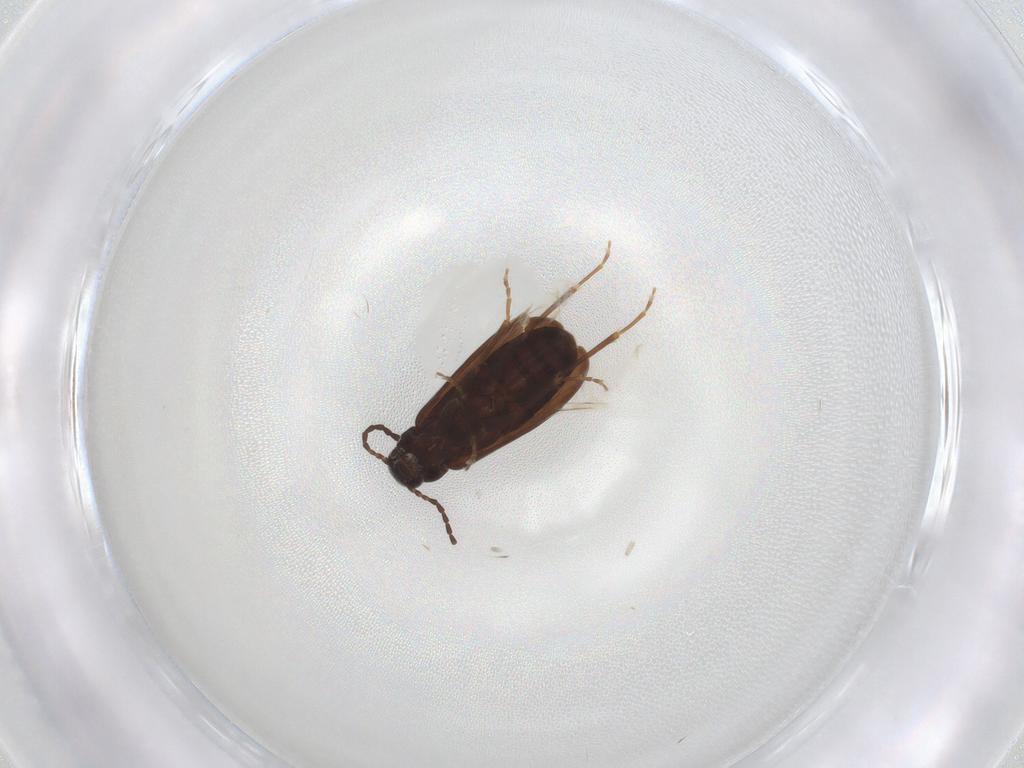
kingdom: Animalia
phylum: Arthropoda
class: Insecta
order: Coleoptera
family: Scraptiidae
